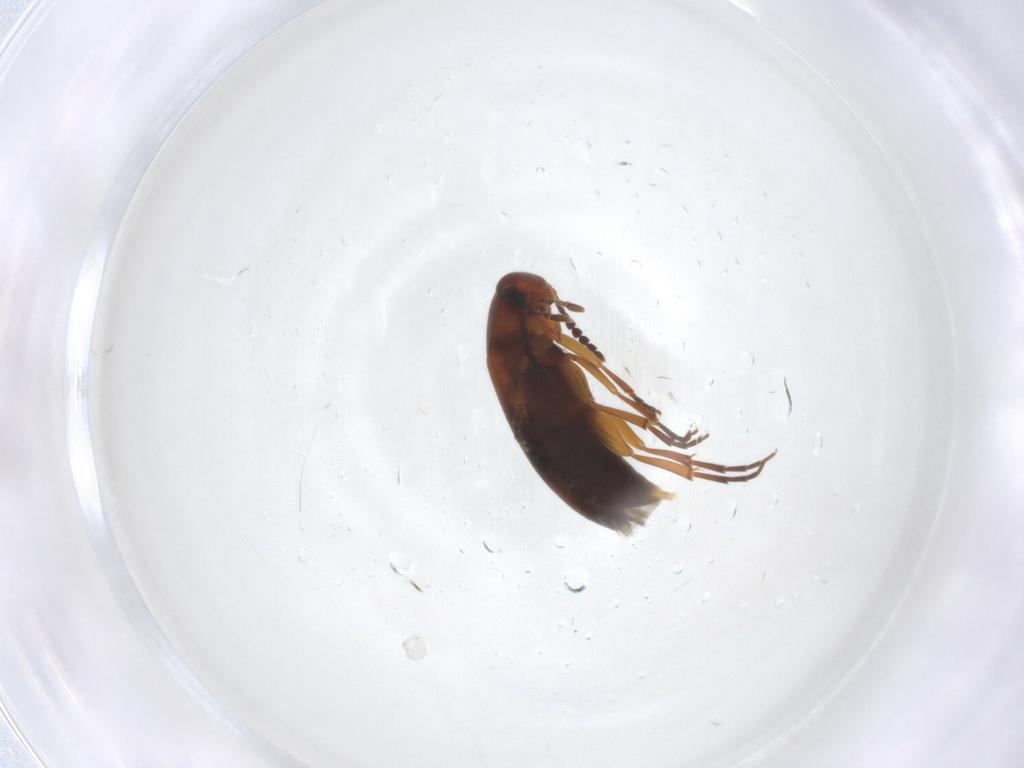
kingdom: Animalia
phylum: Arthropoda
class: Insecta
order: Coleoptera
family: Scraptiidae
